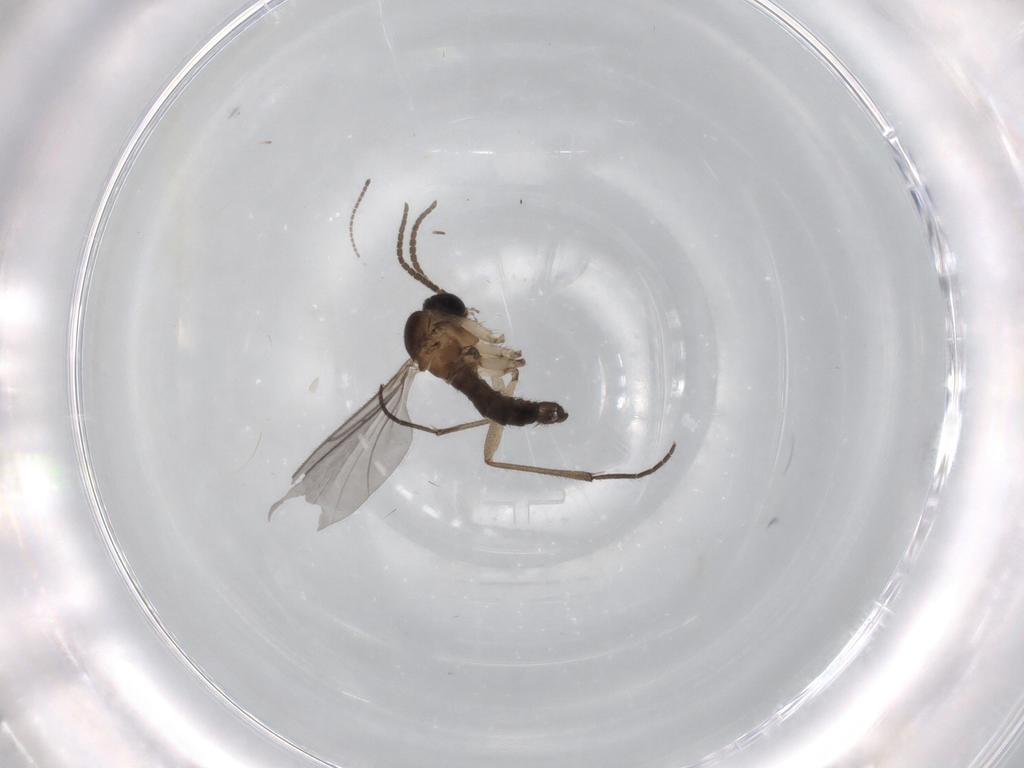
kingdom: Animalia
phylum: Arthropoda
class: Insecta
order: Diptera
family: Sciaridae
